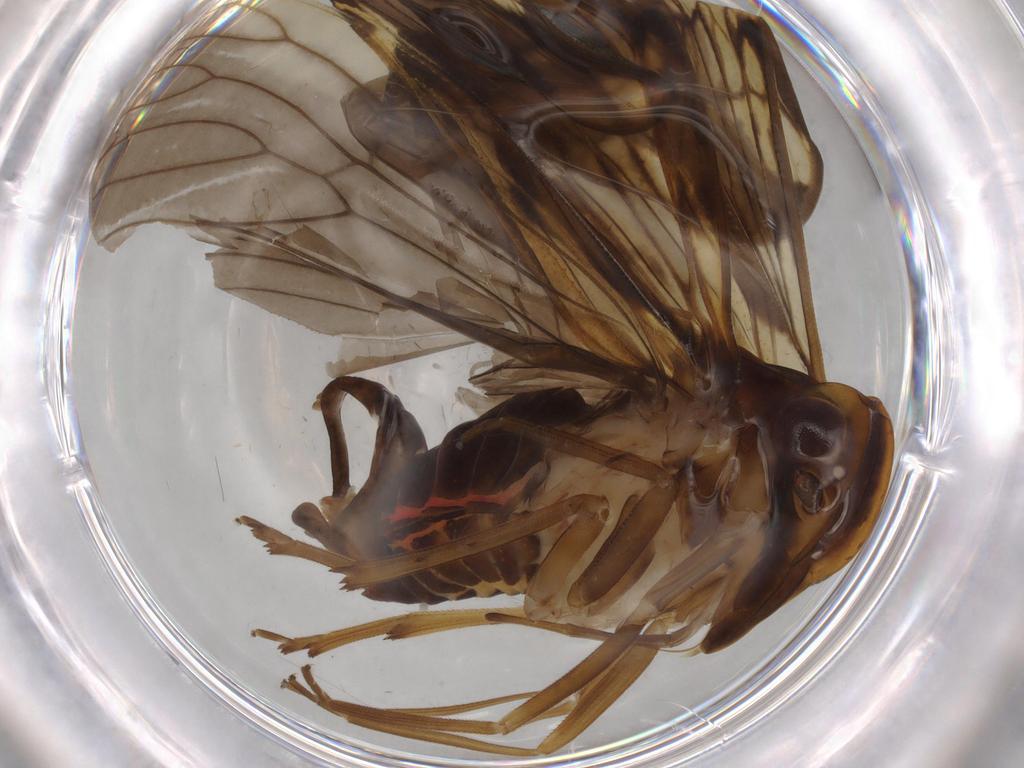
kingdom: Animalia
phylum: Arthropoda
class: Insecta
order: Hemiptera
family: Cixiidae
